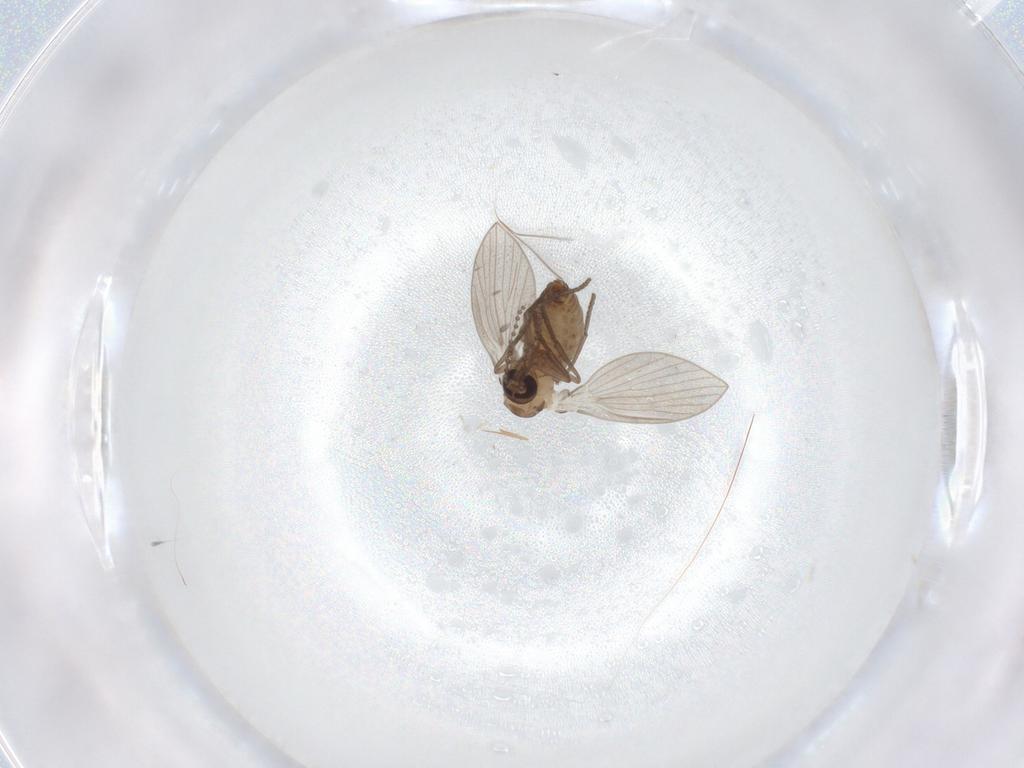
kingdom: Animalia
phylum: Arthropoda
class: Insecta
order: Diptera
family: Psychodidae
